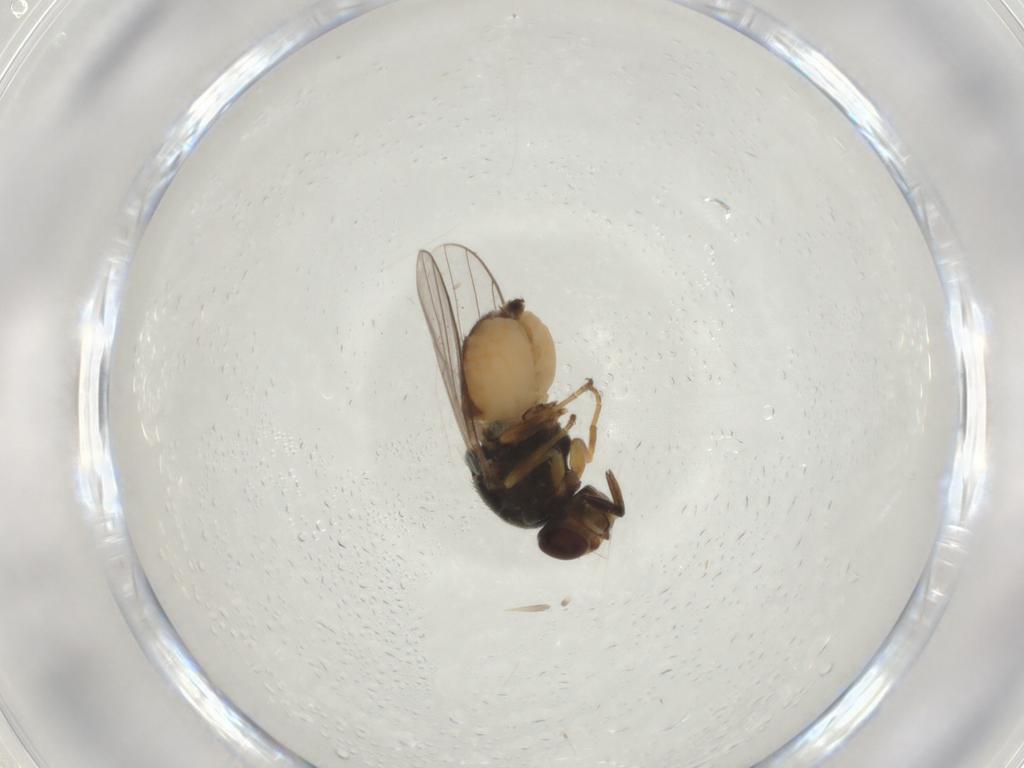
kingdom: Animalia
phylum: Arthropoda
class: Insecta
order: Diptera
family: Chloropidae
